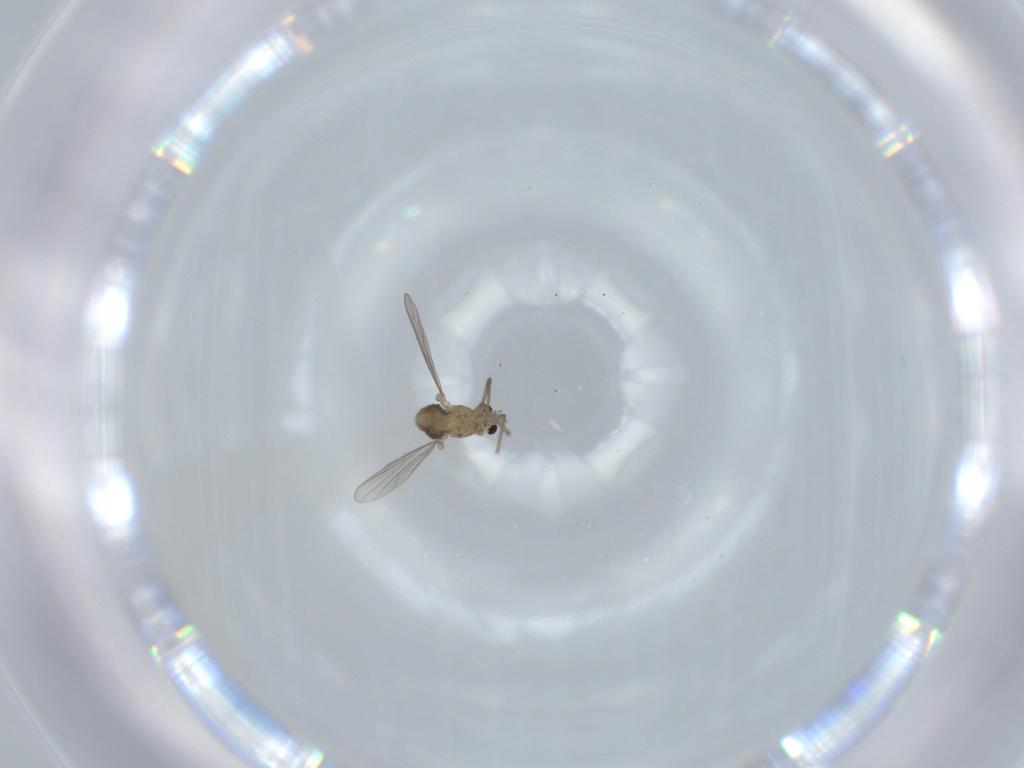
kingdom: Animalia
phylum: Arthropoda
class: Insecta
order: Diptera
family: Chironomidae
